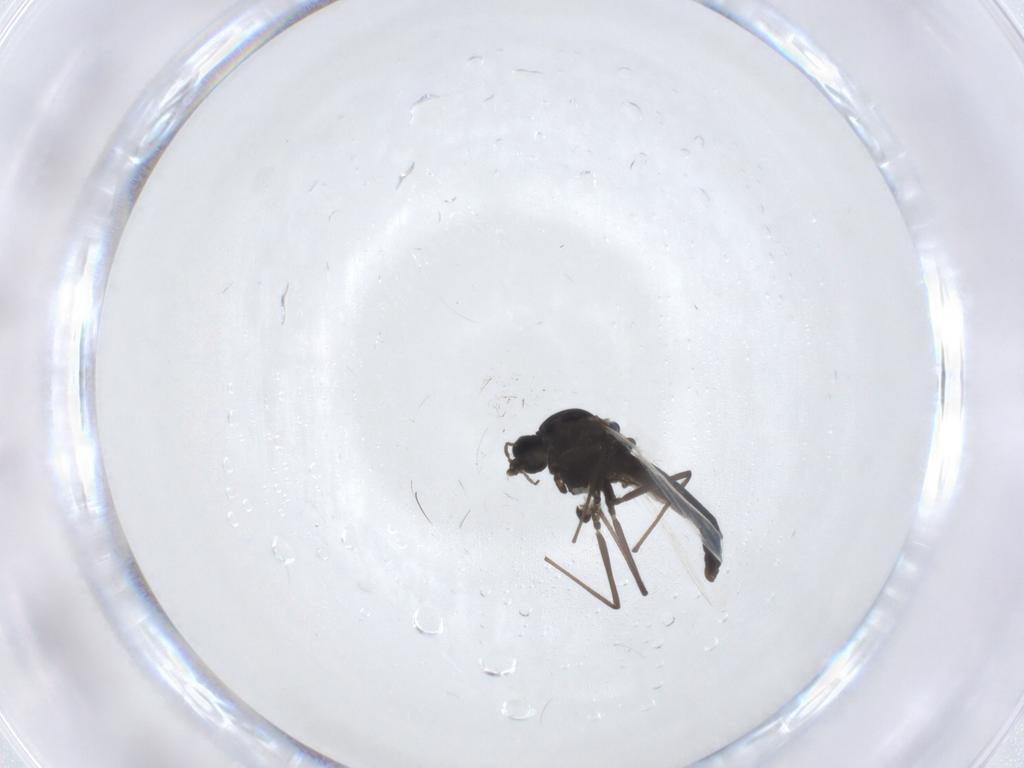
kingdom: Animalia
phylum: Arthropoda
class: Insecta
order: Diptera
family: Chironomidae
